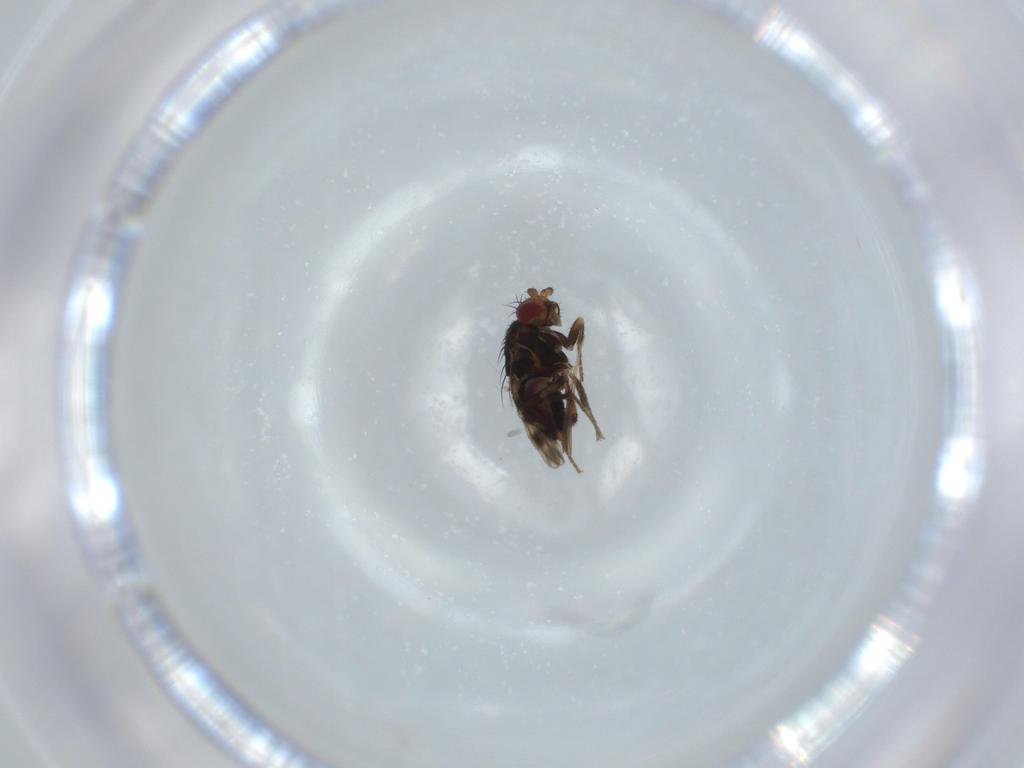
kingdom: Animalia
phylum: Arthropoda
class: Insecta
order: Diptera
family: Sphaeroceridae
